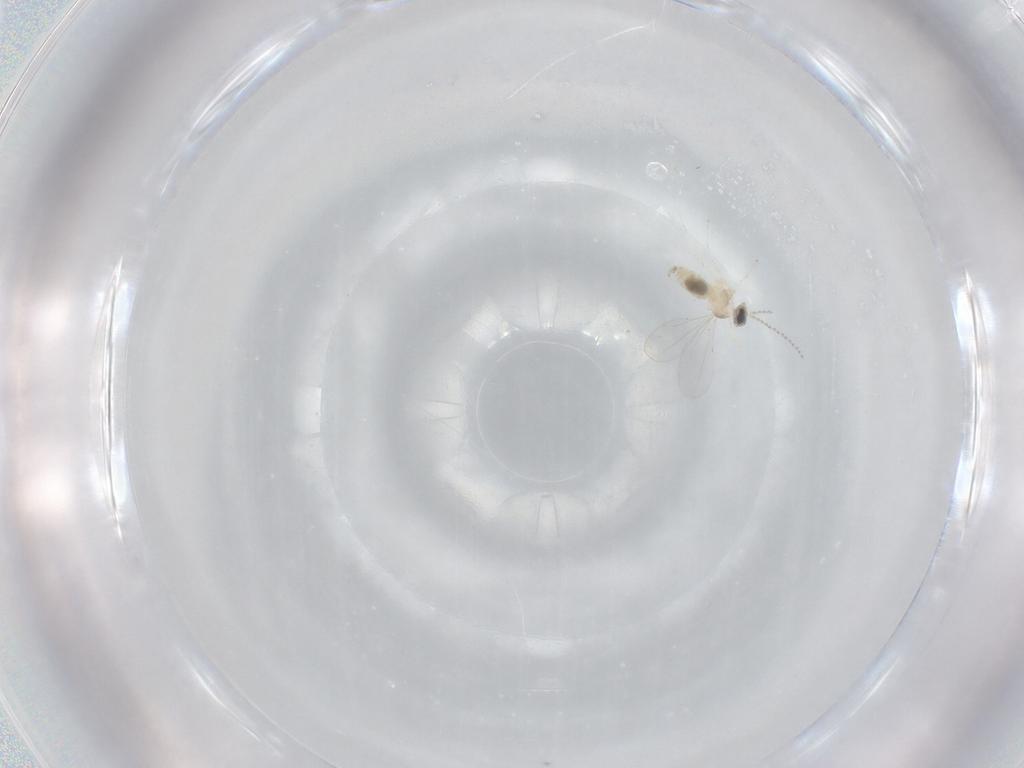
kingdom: Animalia
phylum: Arthropoda
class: Insecta
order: Diptera
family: Cecidomyiidae
